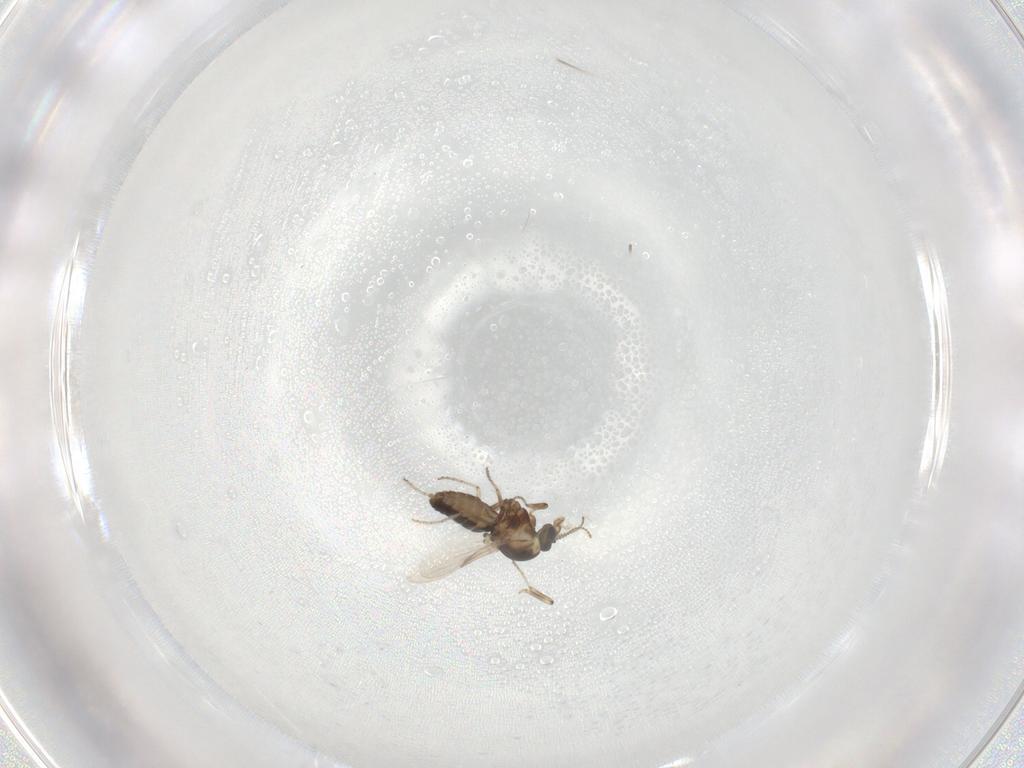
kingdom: Animalia
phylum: Arthropoda
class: Insecta
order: Diptera
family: Ceratopogonidae
